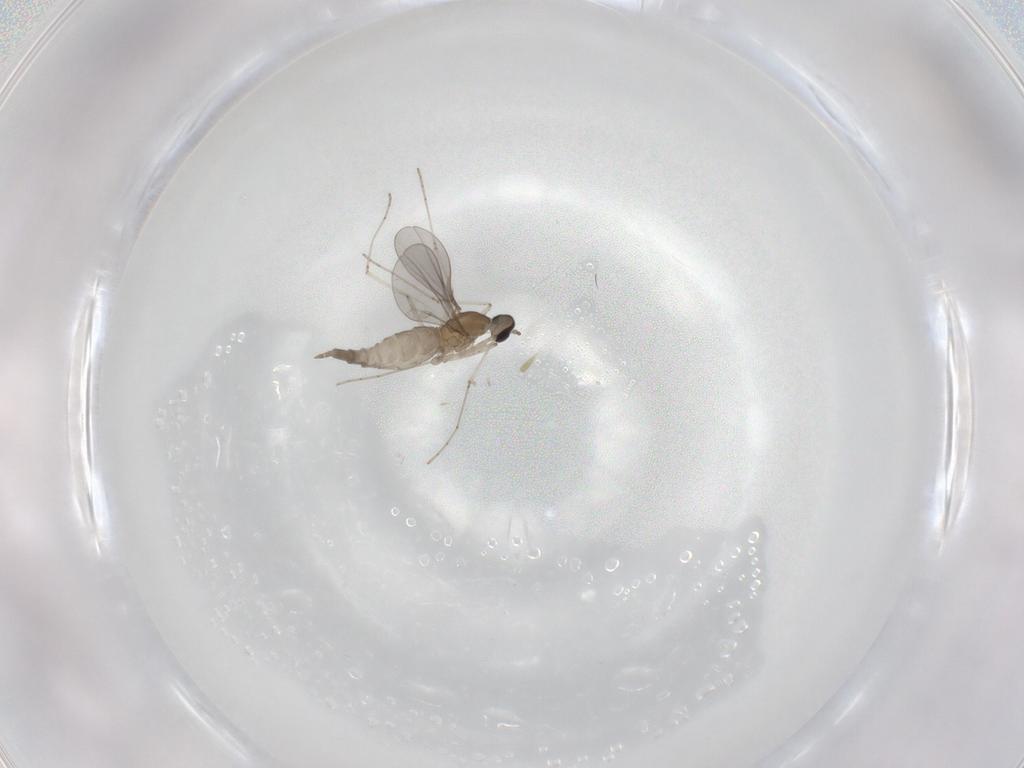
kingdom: Animalia
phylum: Arthropoda
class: Insecta
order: Diptera
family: Cecidomyiidae
